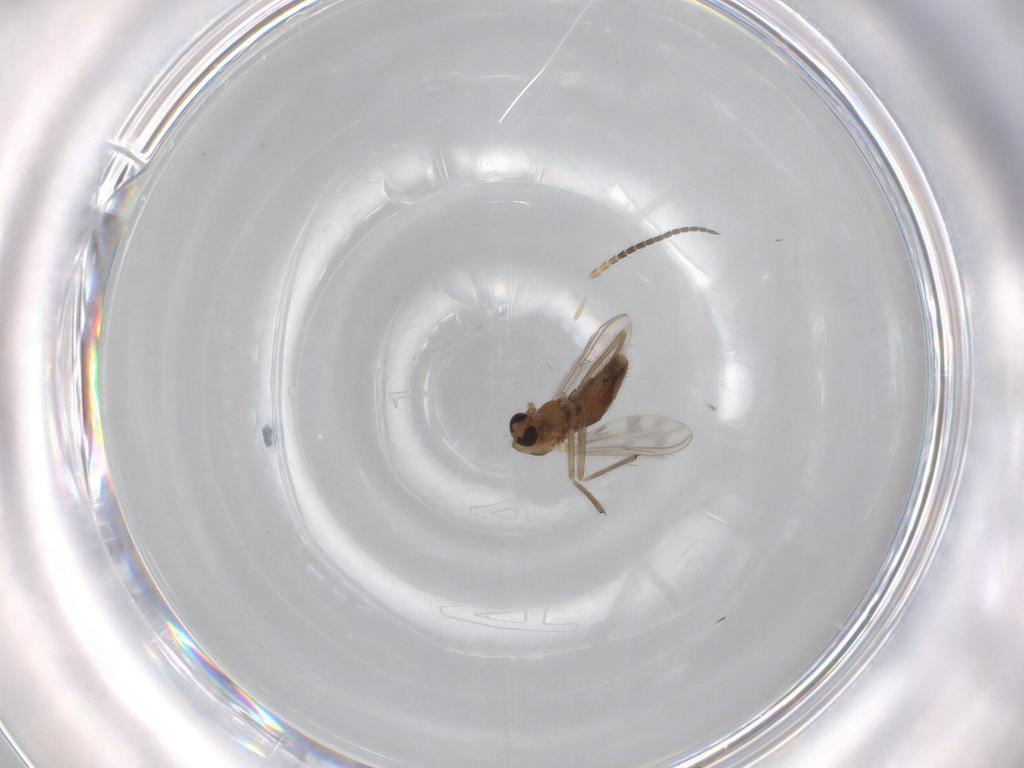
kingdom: Animalia
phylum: Arthropoda
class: Insecta
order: Diptera
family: Chironomidae
